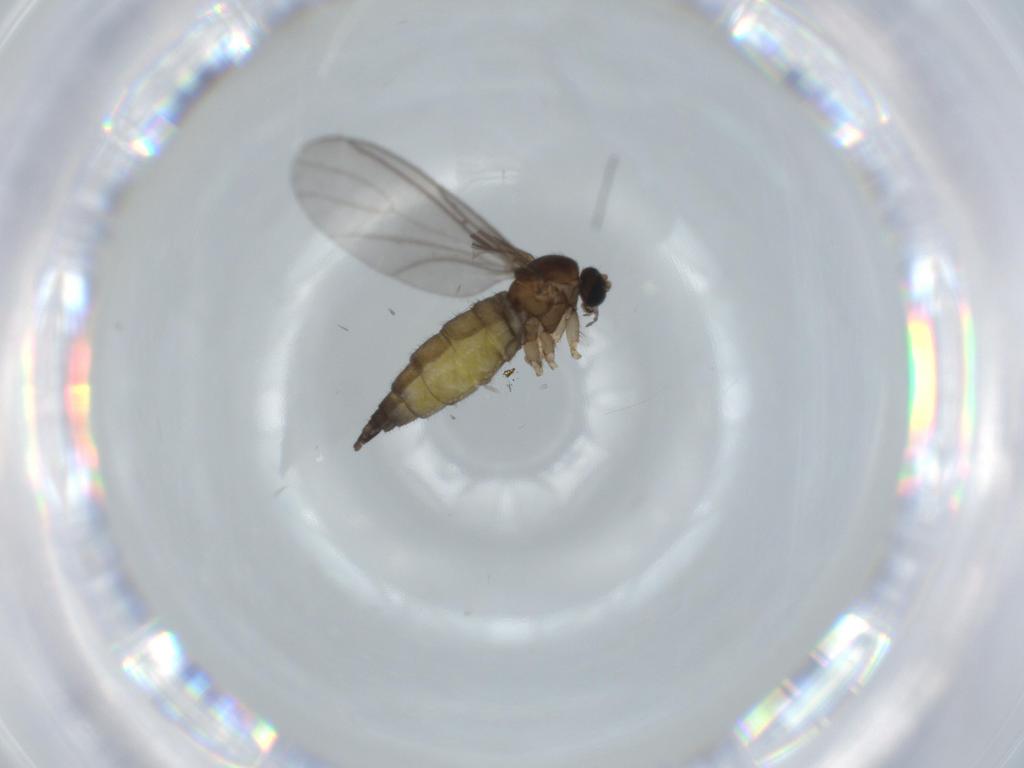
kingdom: Animalia
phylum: Arthropoda
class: Insecta
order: Diptera
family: Sciaridae
